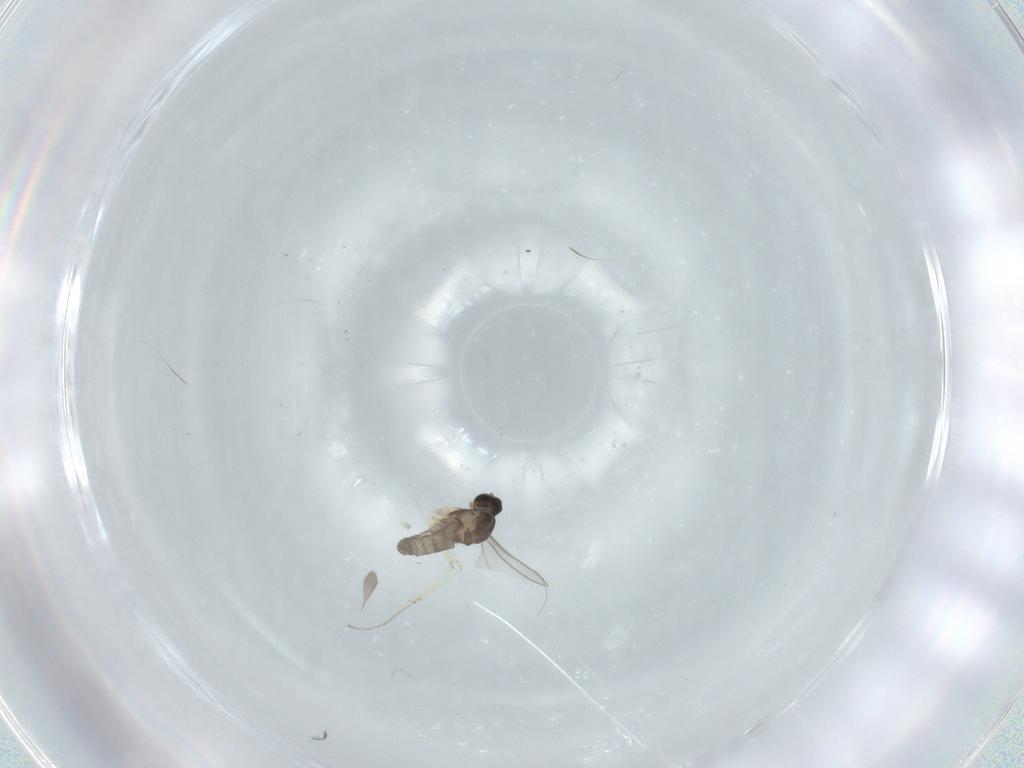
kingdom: Animalia
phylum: Arthropoda
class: Insecta
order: Diptera
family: Cecidomyiidae
